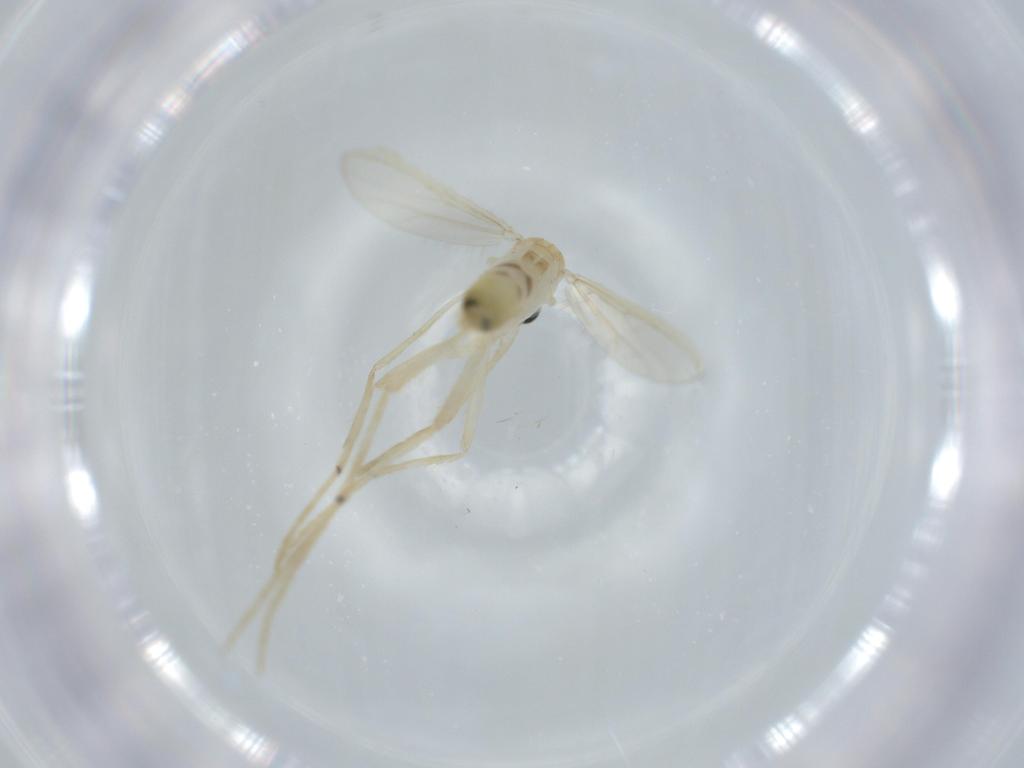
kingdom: Animalia
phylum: Arthropoda
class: Insecta
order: Diptera
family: Chironomidae
